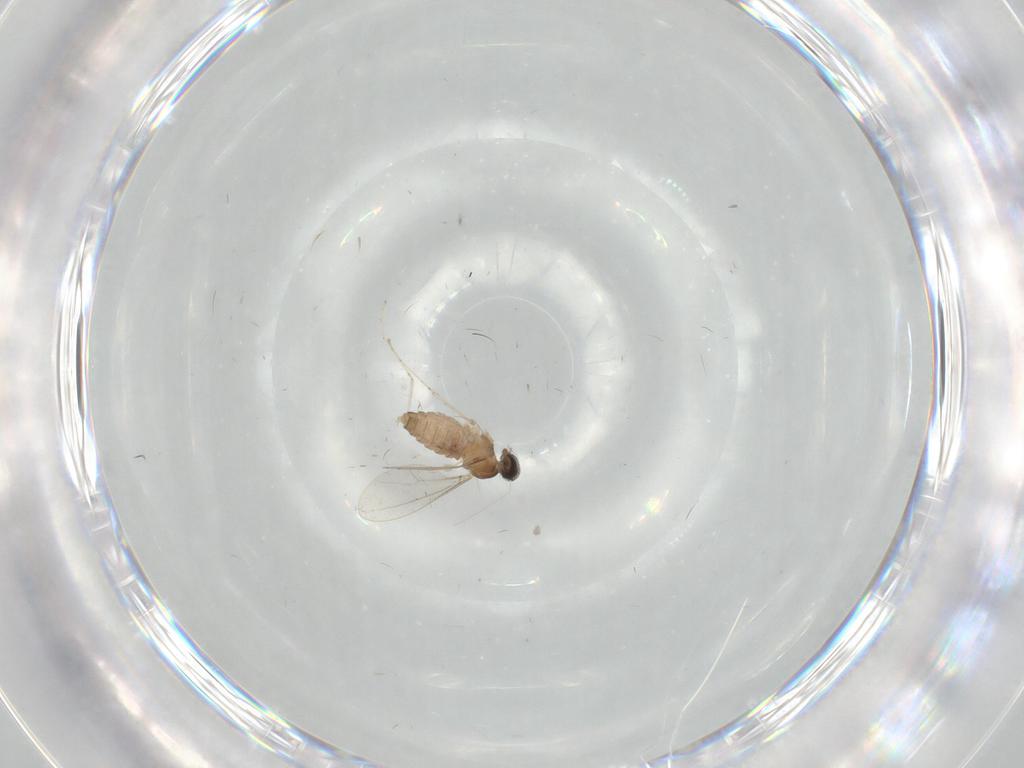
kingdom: Animalia
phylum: Arthropoda
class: Insecta
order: Diptera
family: Cecidomyiidae
